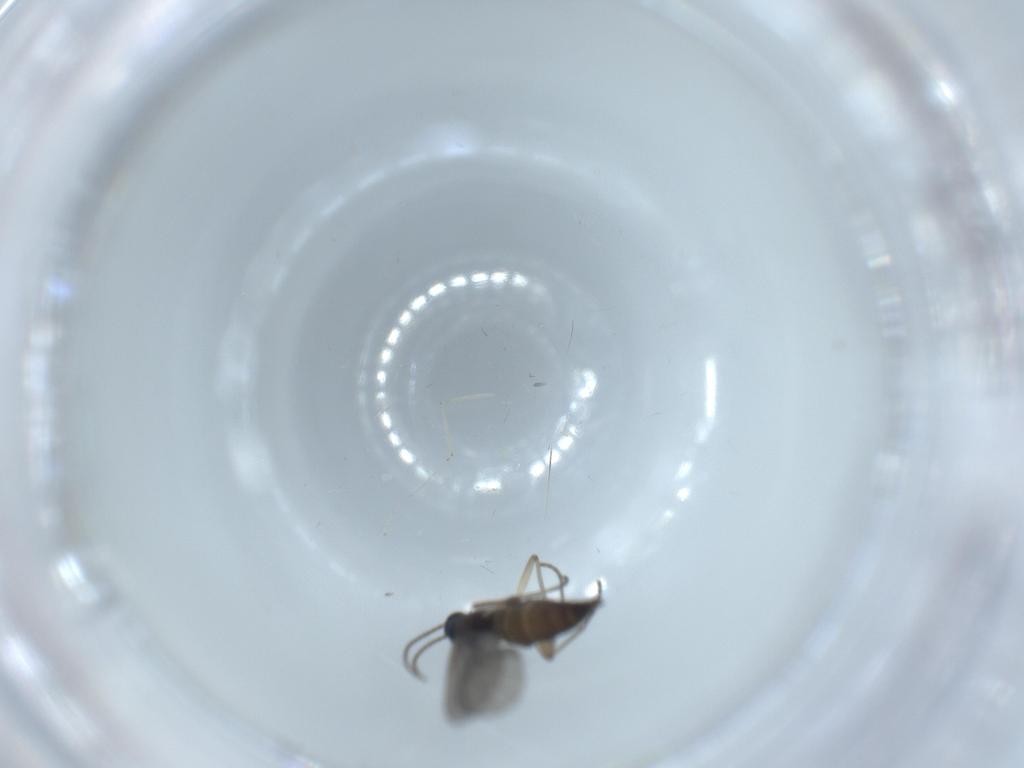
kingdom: Animalia
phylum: Arthropoda
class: Insecta
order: Diptera
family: Sciaridae
